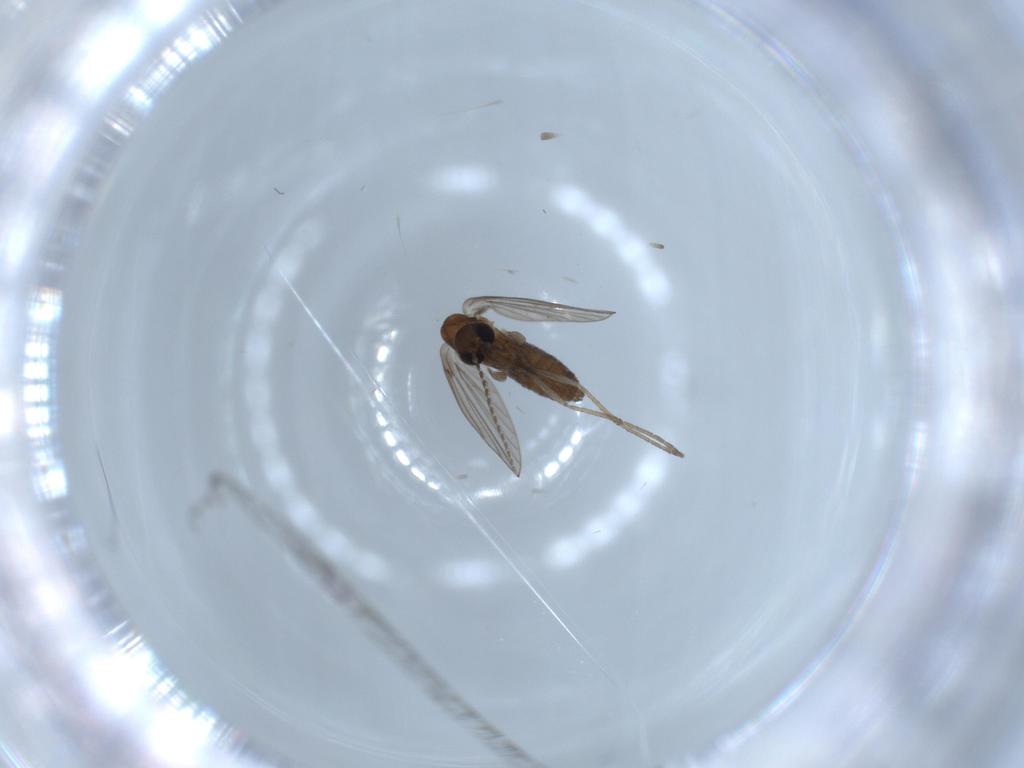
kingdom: Animalia
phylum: Arthropoda
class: Insecta
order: Diptera
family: Psychodidae
